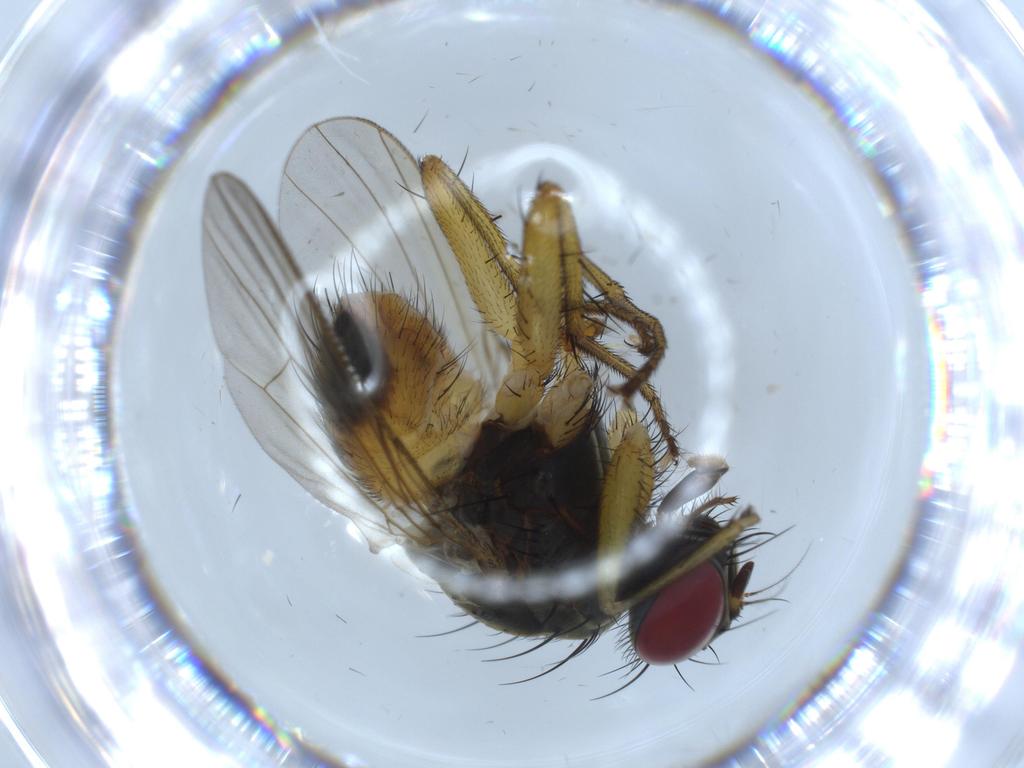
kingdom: Animalia
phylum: Arthropoda
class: Insecta
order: Diptera
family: Muscidae
